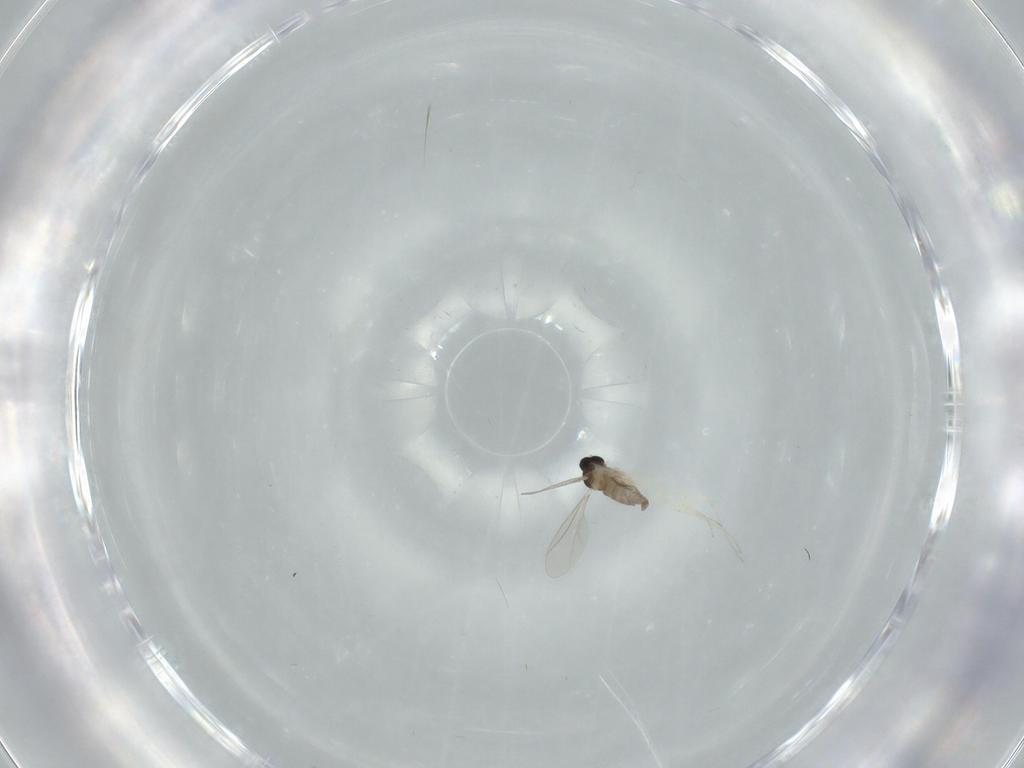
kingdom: Animalia
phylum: Arthropoda
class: Insecta
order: Diptera
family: Cecidomyiidae
